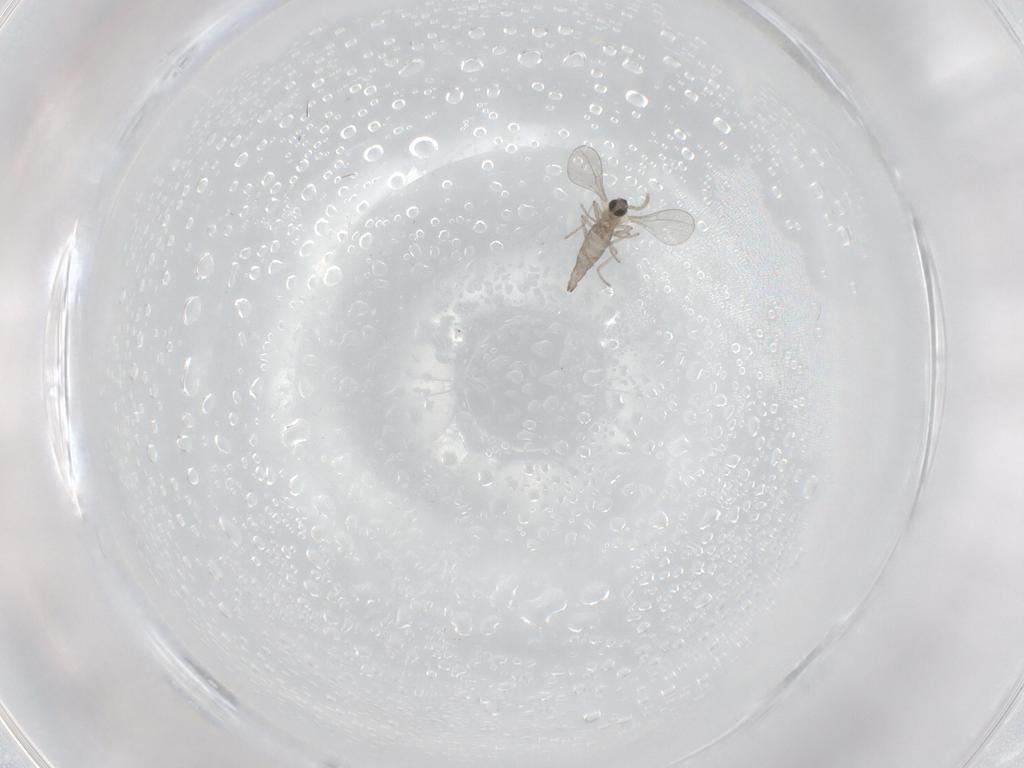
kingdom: Animalia
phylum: Arthropoda
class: Insecta
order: Diptera
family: Cecidomyiidae
